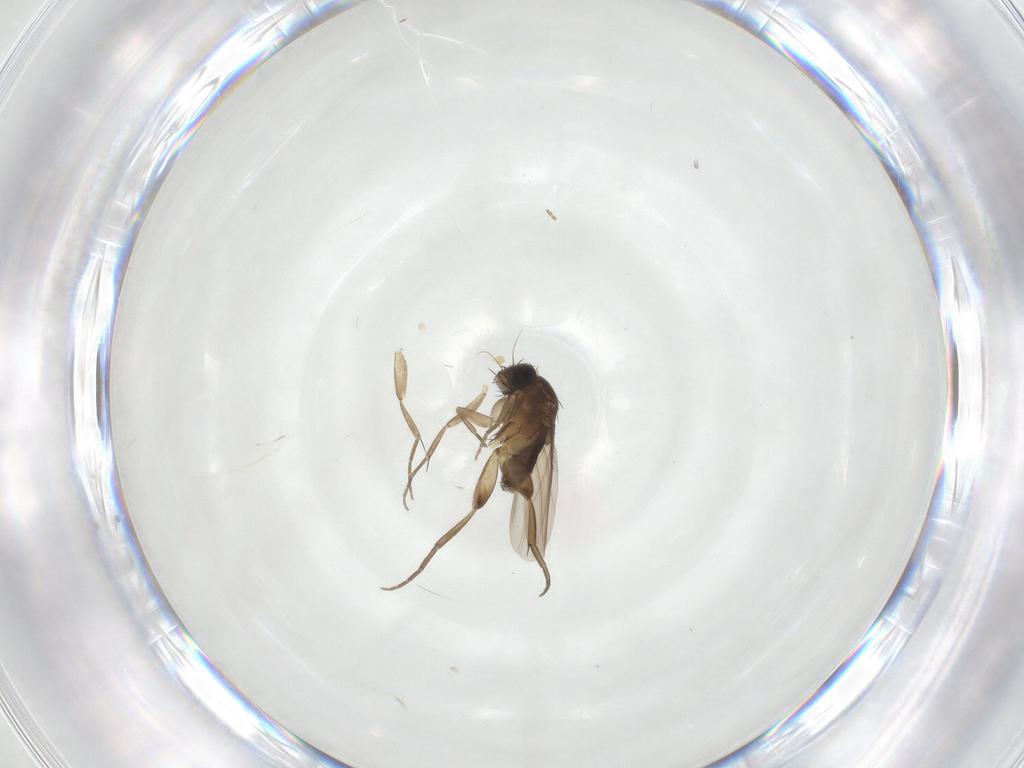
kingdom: Animalia
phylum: Arthropoda
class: Insecta
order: Diptera
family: Phoridae
